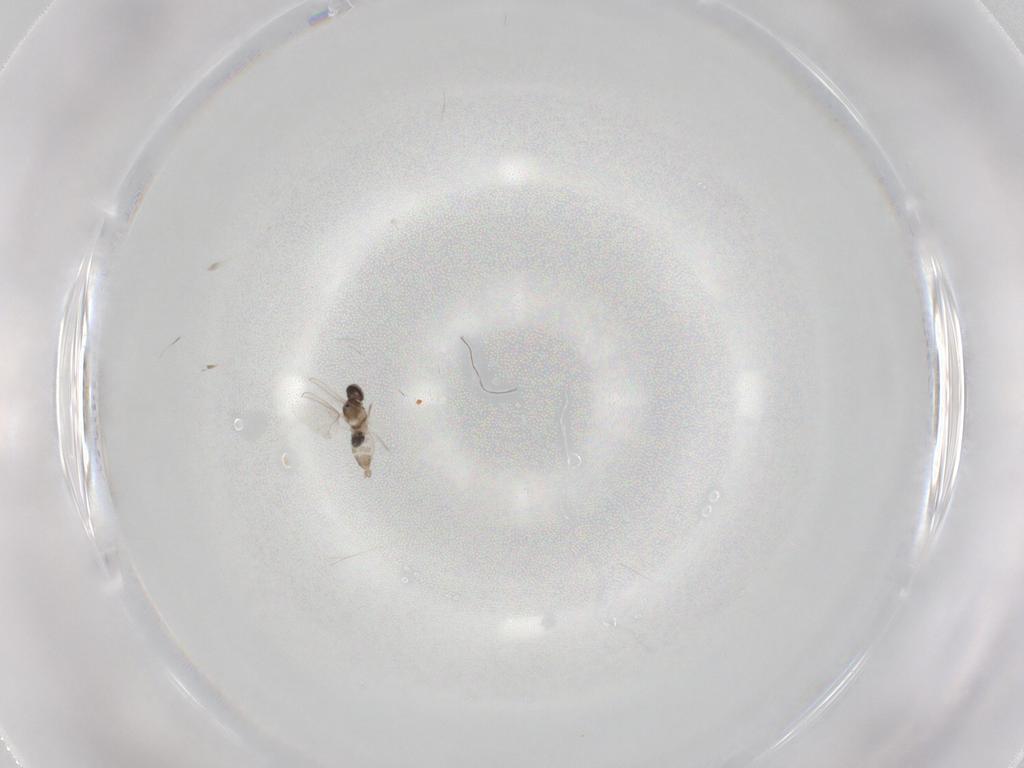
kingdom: Animalia
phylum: Arthropoda
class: Insecta
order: Diptera
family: Cecidomyiidae
